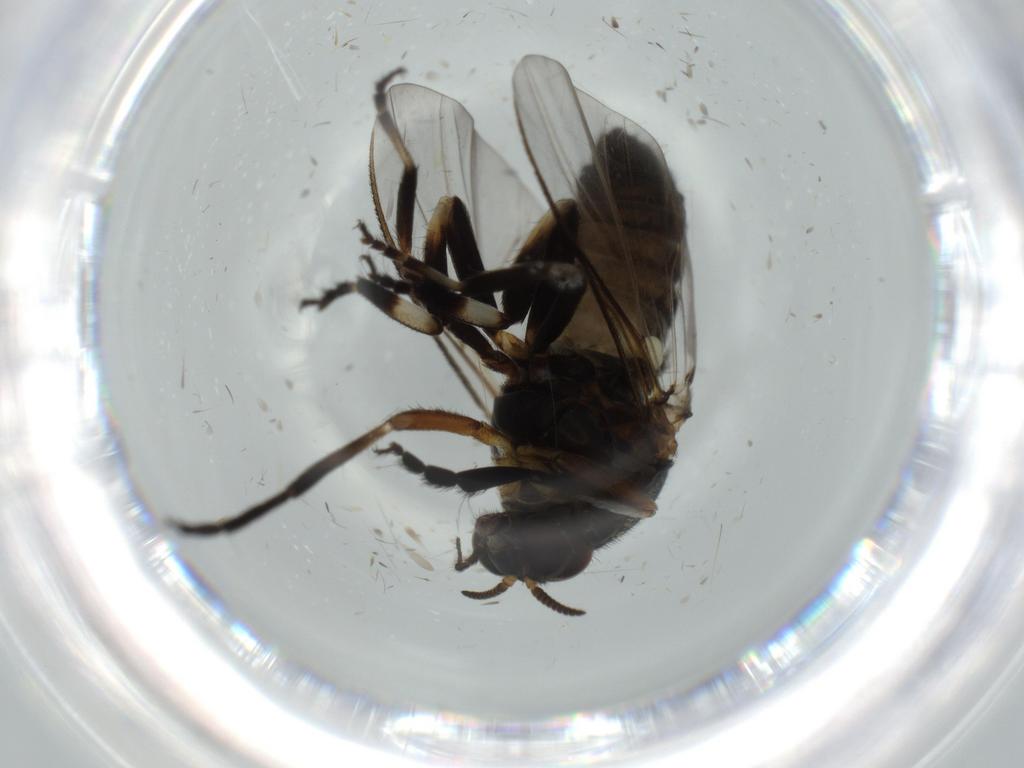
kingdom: Animalia
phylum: Arthropoda
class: Insecta
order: Diptera
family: Phoridae
